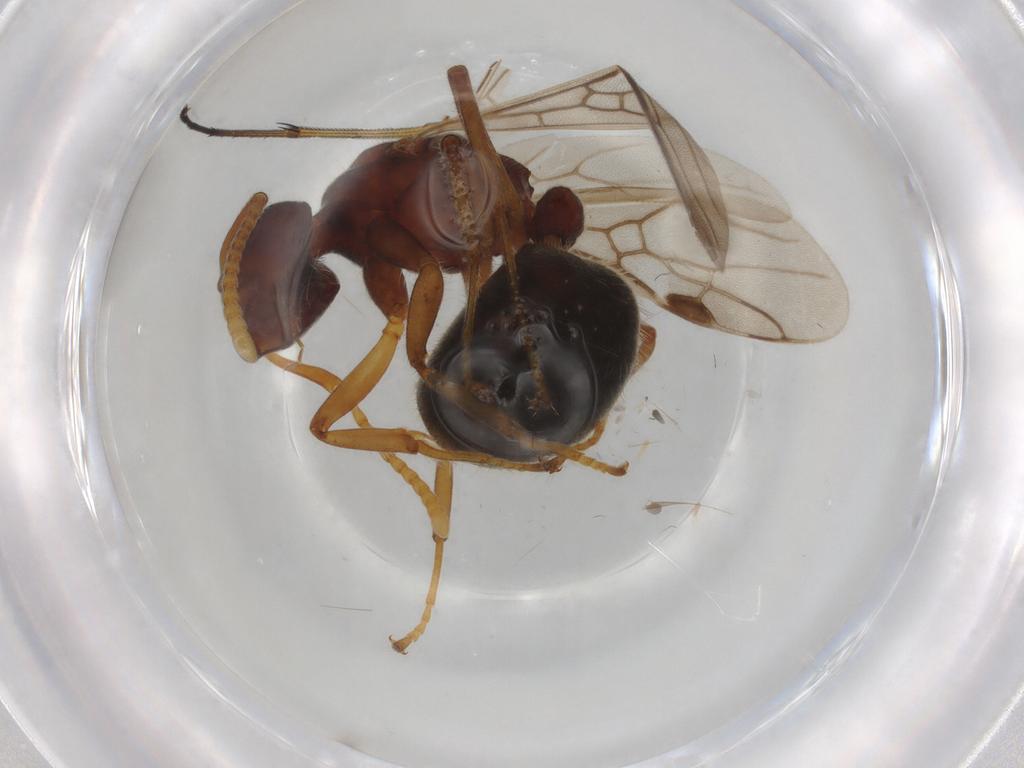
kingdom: Animalia
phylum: Arthropoda
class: Insecta
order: Hymenoptera
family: Formicidae
